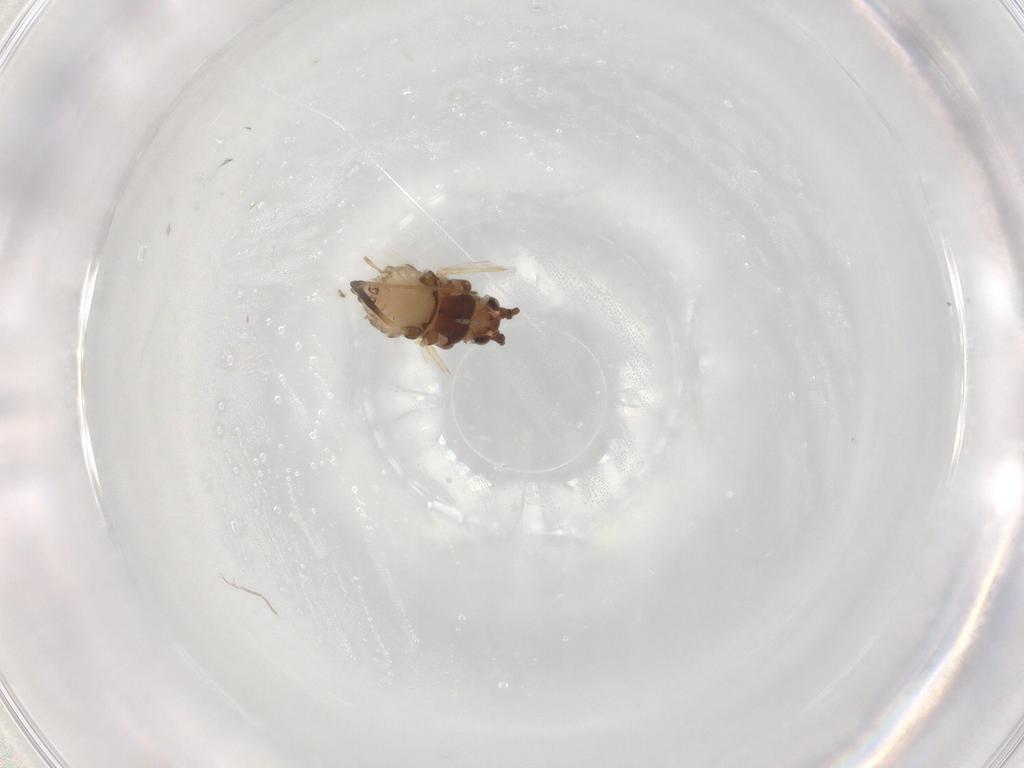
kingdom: Animalia
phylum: Arthropoda
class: Insecta
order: Hemiptera
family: Aphididae
